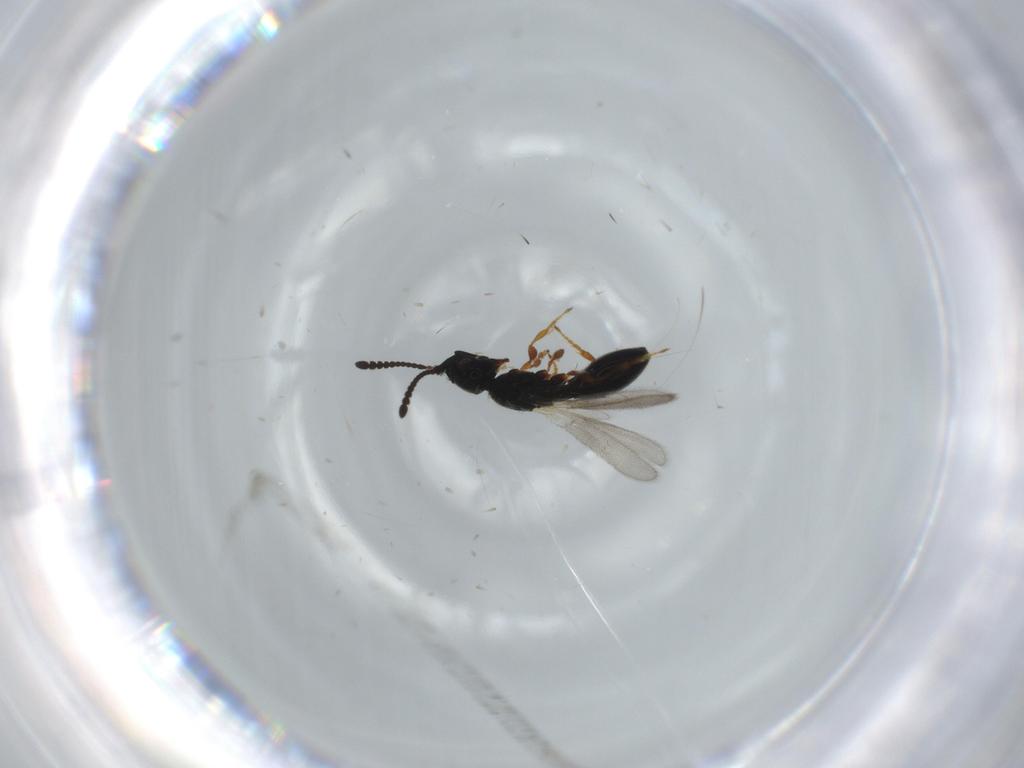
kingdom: Animalia
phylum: Arthropoda
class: Insecta
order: Hymenoptera
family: Diapriidae
